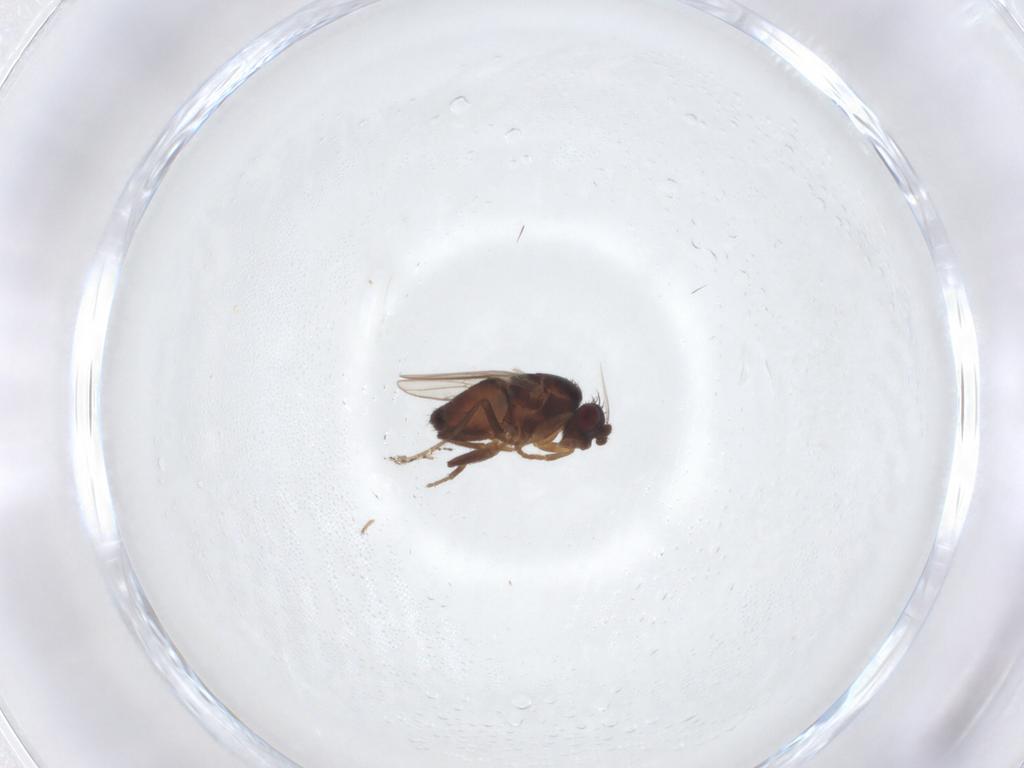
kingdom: Animalia
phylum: Arthropoda
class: Insecta
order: Diptera
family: Sphaeroceridae
